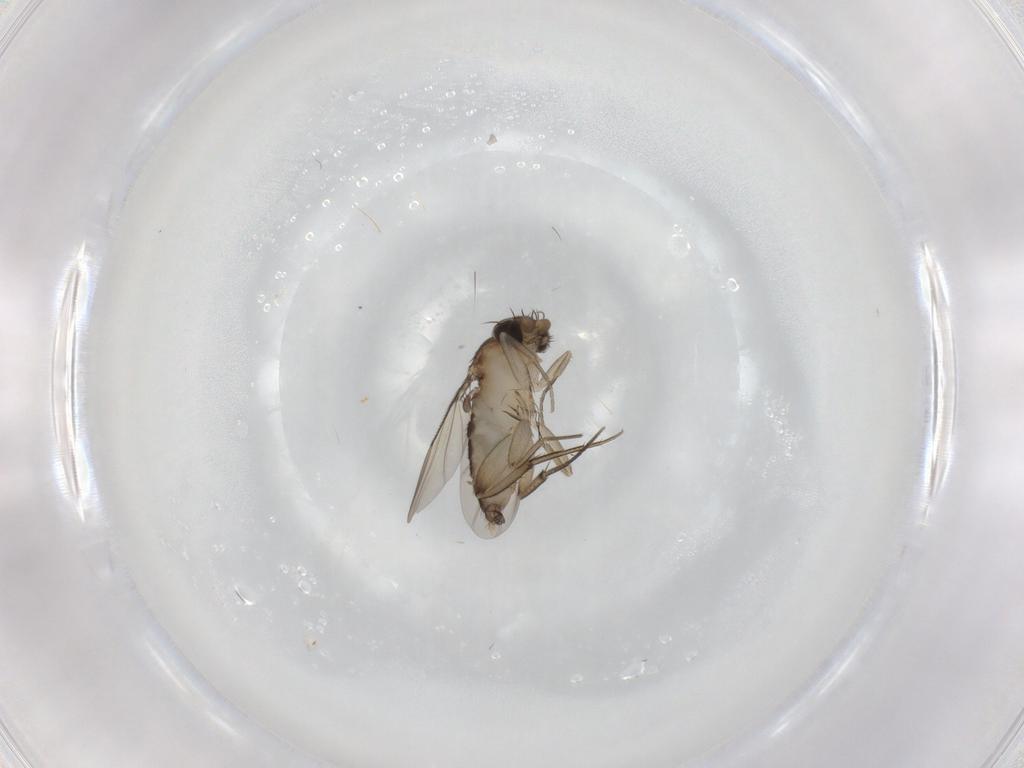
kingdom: Animalia
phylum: Arthropoda
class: Insecta
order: Diptera
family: Phoridae
